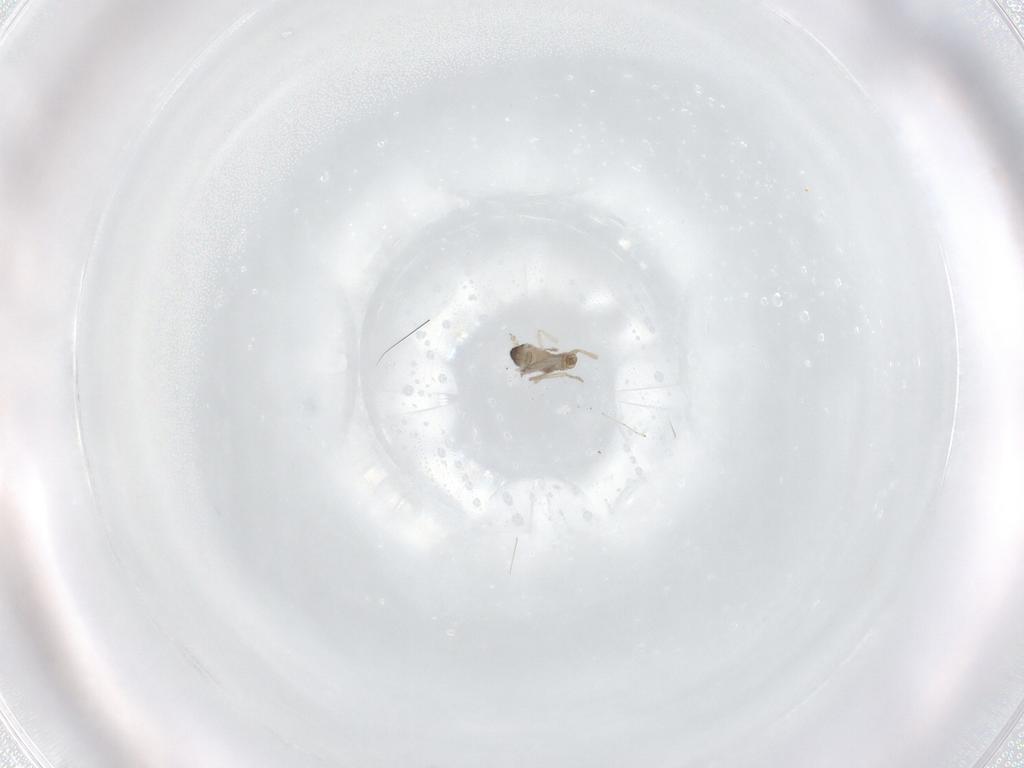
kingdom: Animalia
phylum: Arthropoda
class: Insecta
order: Diptera
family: Cecidomyiidae
